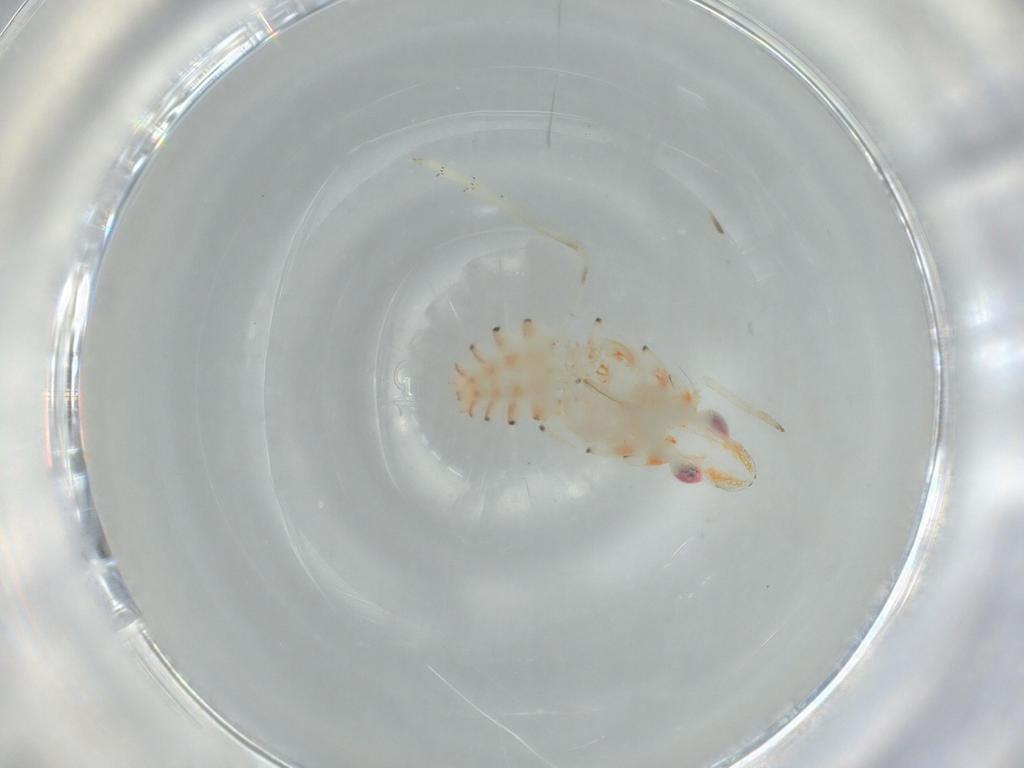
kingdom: Animalia
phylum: Arthropoda
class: Insecta
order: Hemiptera
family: Tropiduchidae
